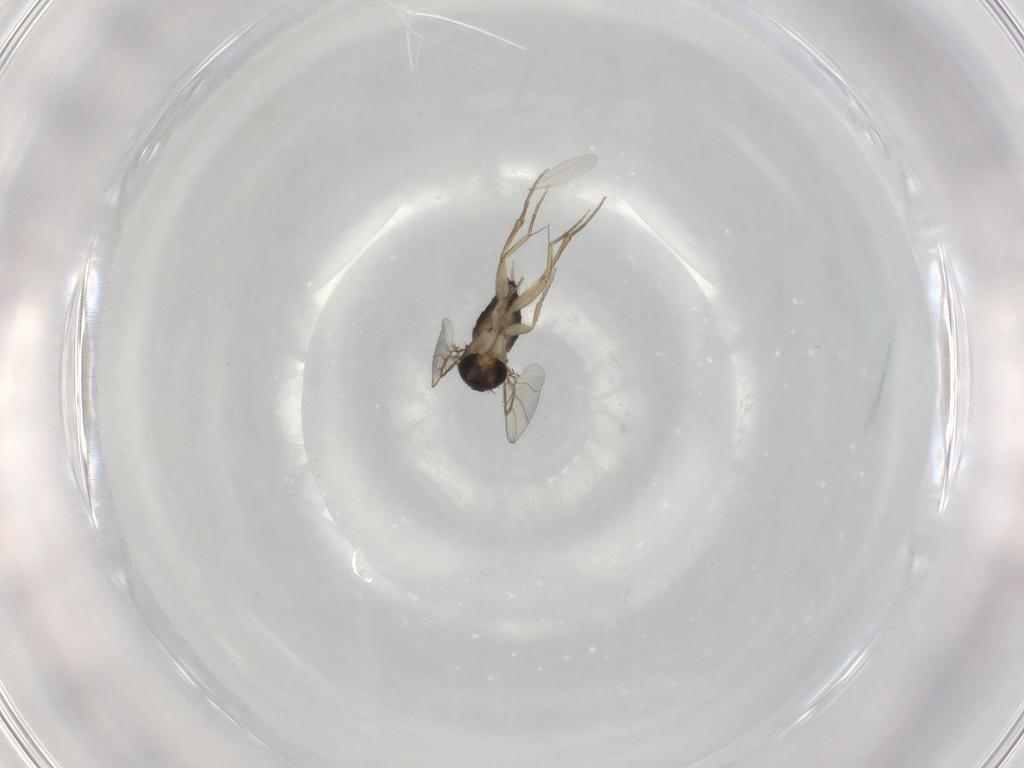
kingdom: Animalia
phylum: Arthropoda
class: Insecta
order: Diptera
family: Phoridae
